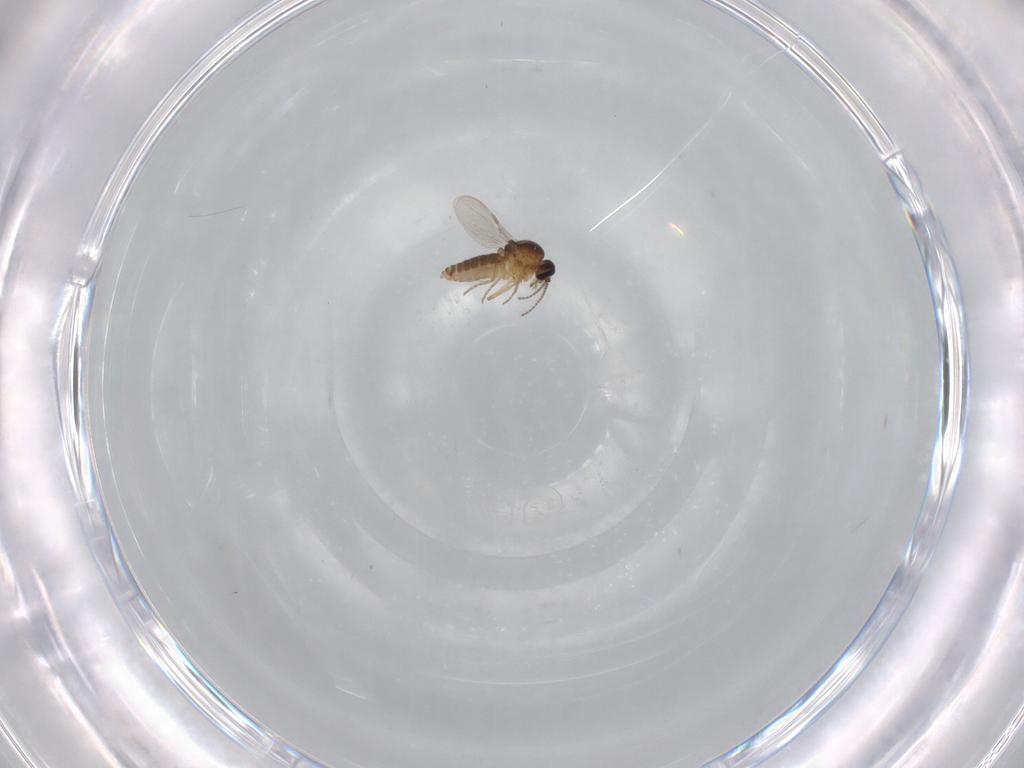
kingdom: Animalia
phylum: Arthropoda
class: Insecta
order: Diptera
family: Ceratopogonidae
